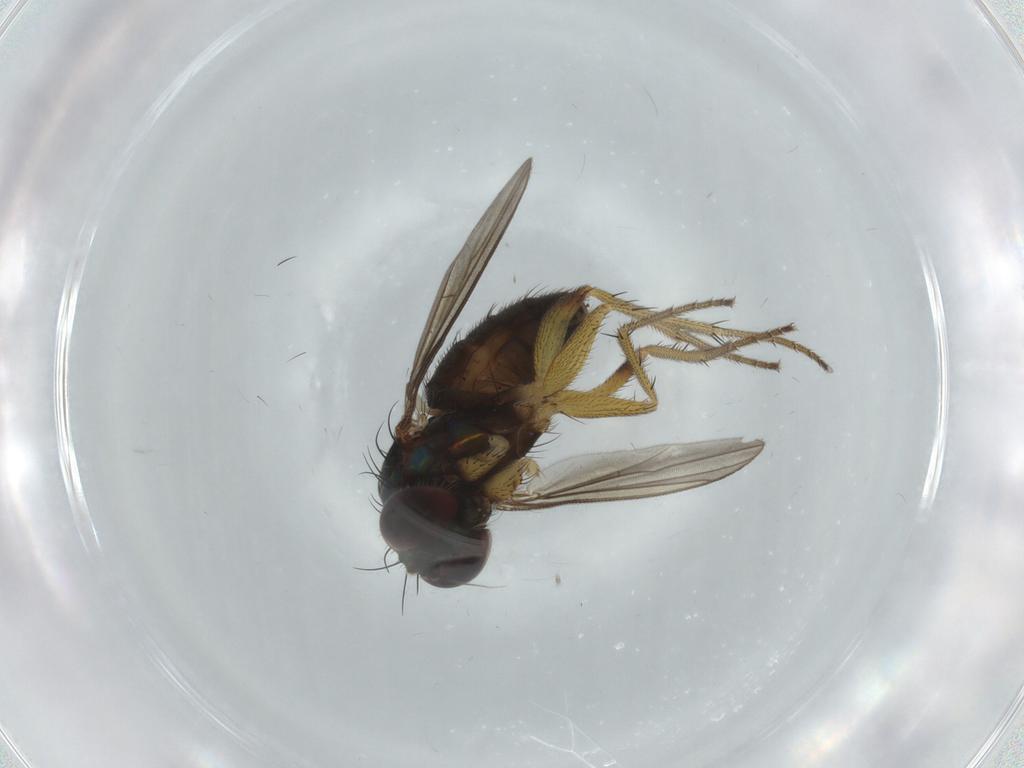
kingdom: Animalia
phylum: Arthropoda
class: Insecta
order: Diptera
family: Dolichopodidae
